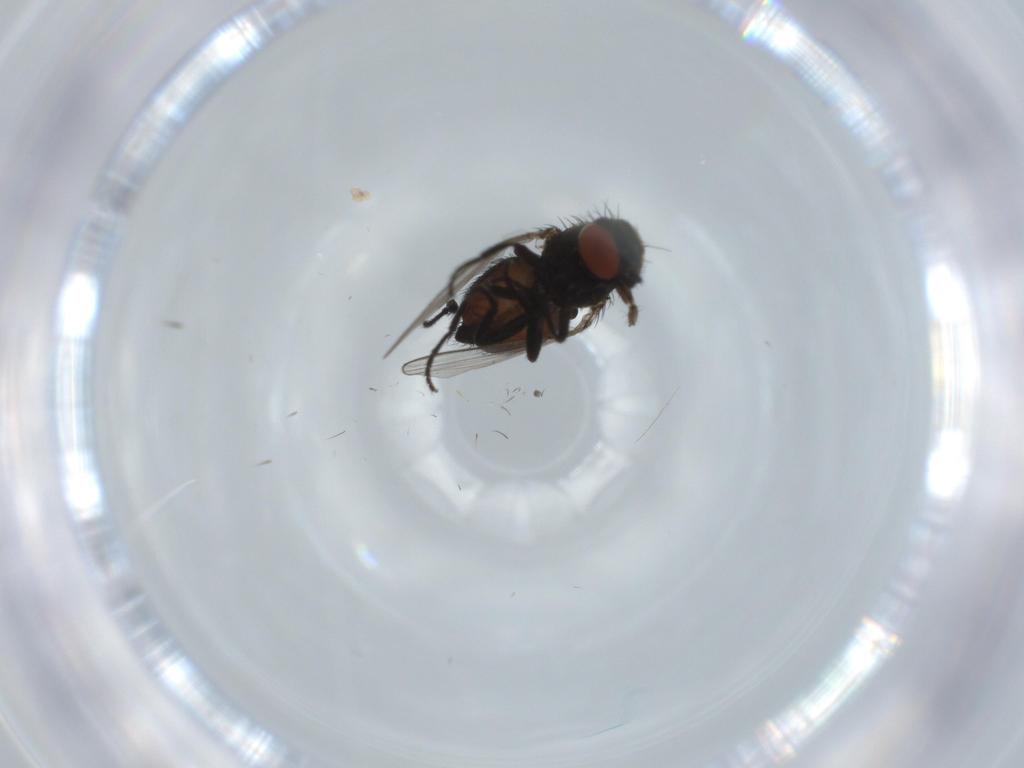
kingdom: Animalia
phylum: Arthropoda
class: Insecta
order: Diptera
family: Milichiidae
